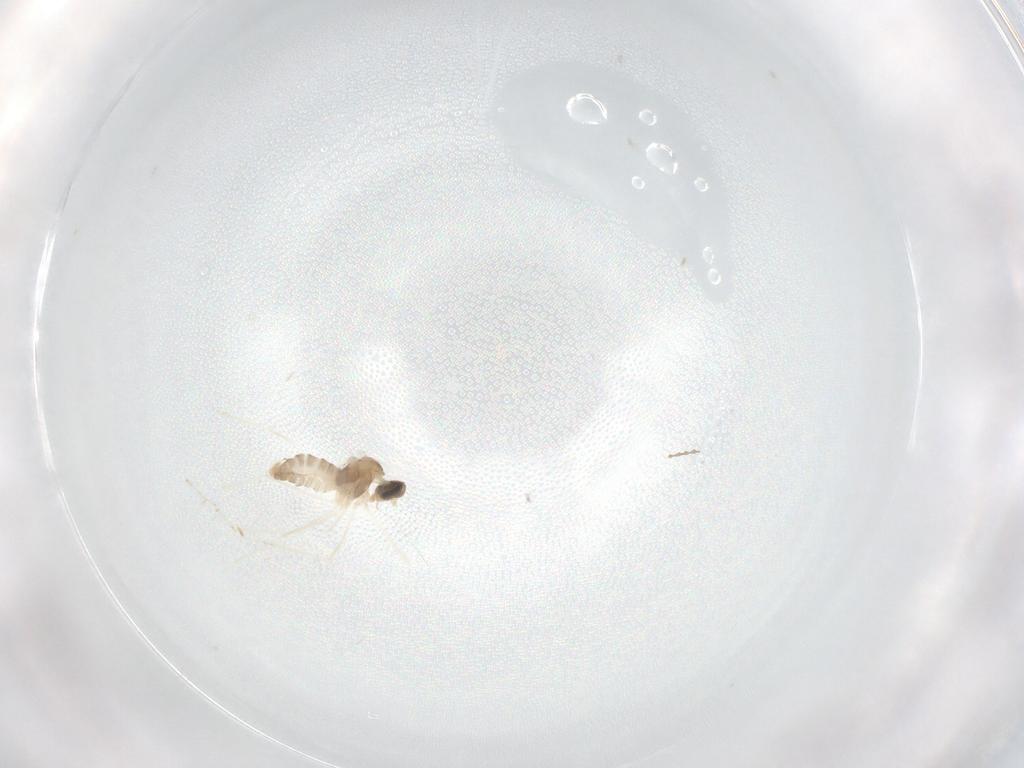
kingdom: Animalia
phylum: Arthropoda
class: Insecta
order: Diptera
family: Cecidomyiidae
